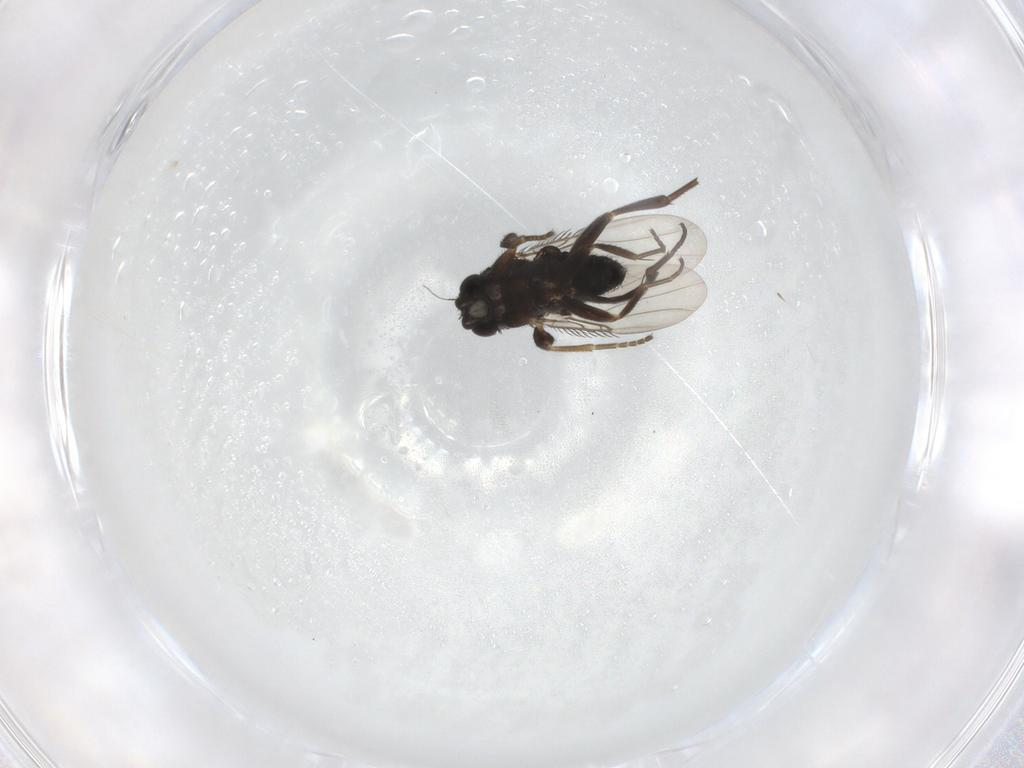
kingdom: Animalia
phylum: Arthropoda
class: Insecta
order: Diptera
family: Phoridae
